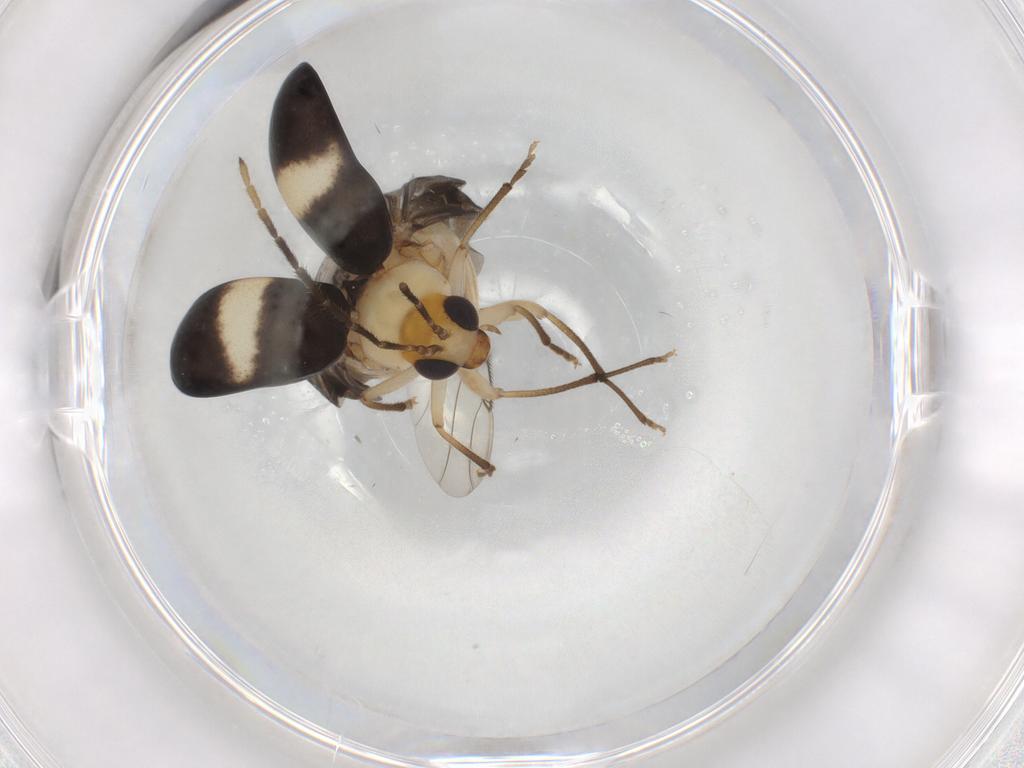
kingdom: Animalia
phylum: Arthropoda
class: Insecta
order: Coleoptera
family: Chrysomelidae
